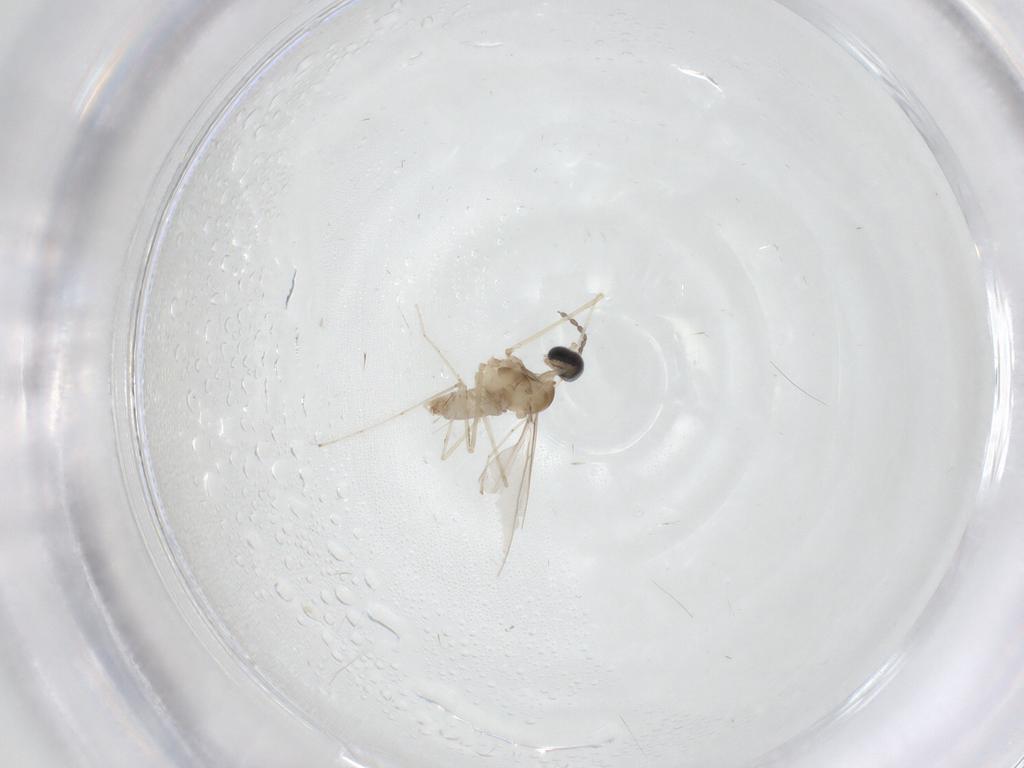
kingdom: Animalia
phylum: Arthropoda
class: Insecta
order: Diptera
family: Cecidomyiidae
